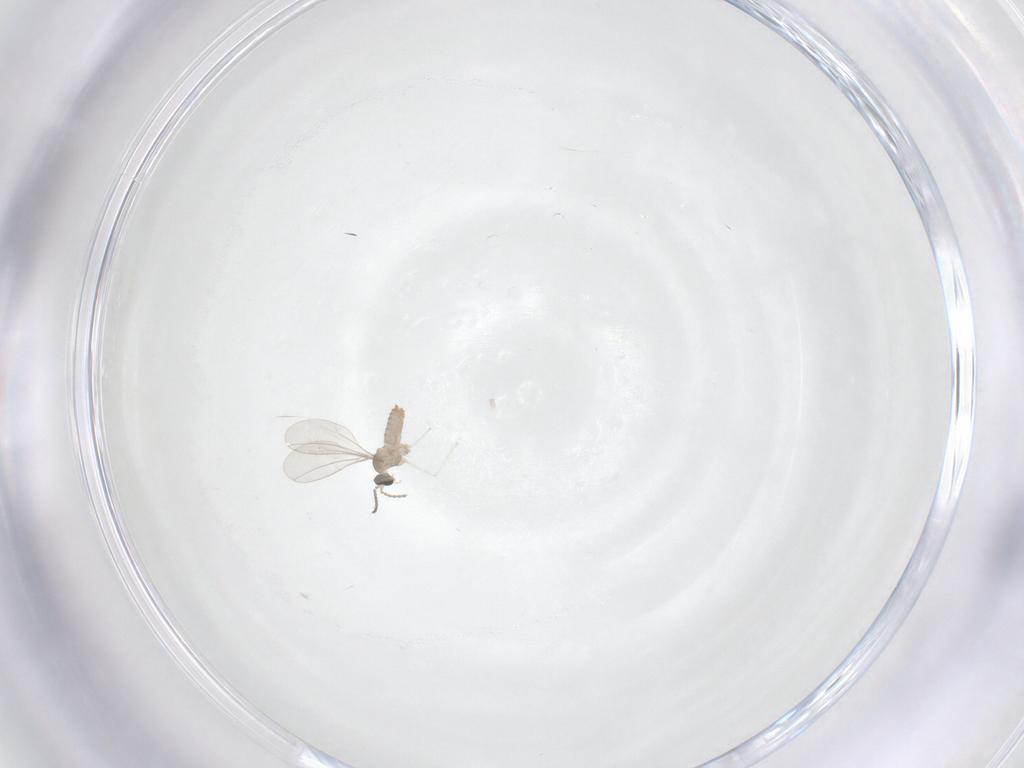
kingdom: Animalia
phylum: Arthropoda
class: Insecta
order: Diptera
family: Cecidomyiidae
